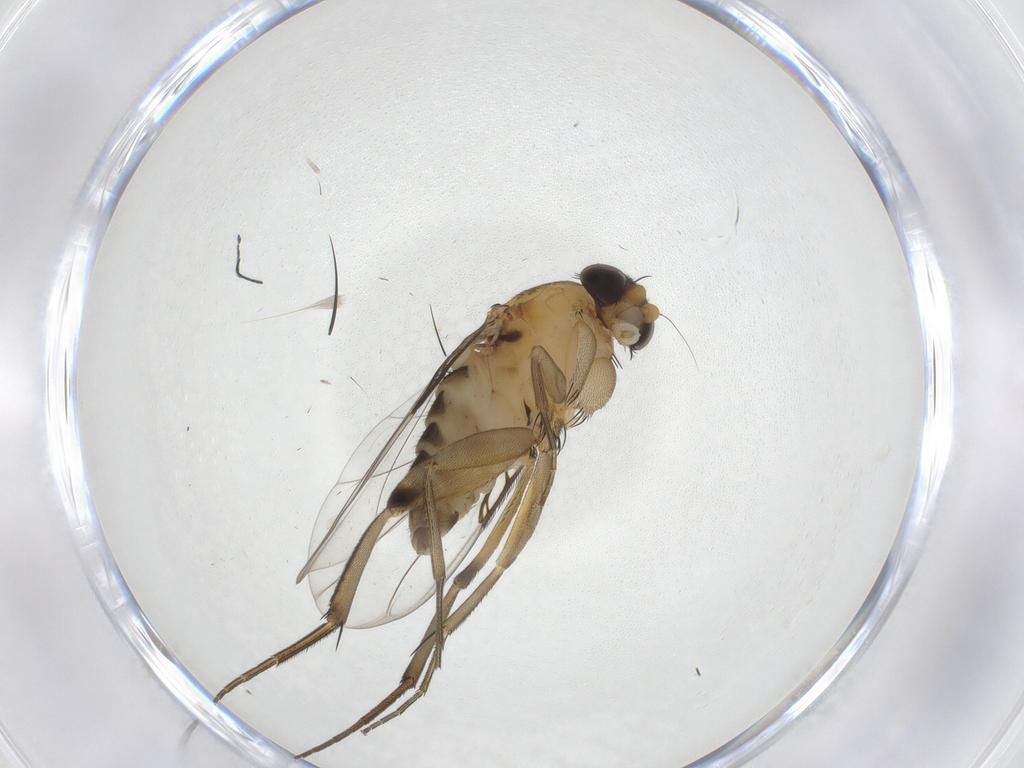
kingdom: Animalia
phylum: Arthropoda
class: Insecta
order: Diptera
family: Phoridae
